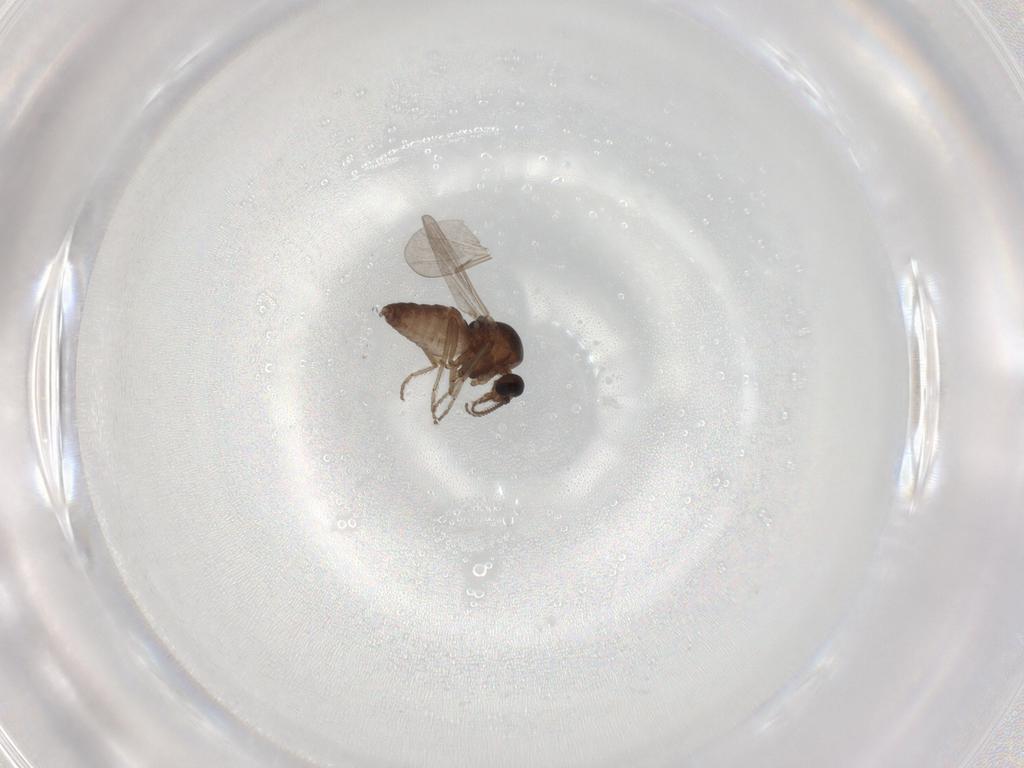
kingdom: Animalia
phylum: Arthropoda
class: Insecta
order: Diptera
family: Ceratopogonidae
